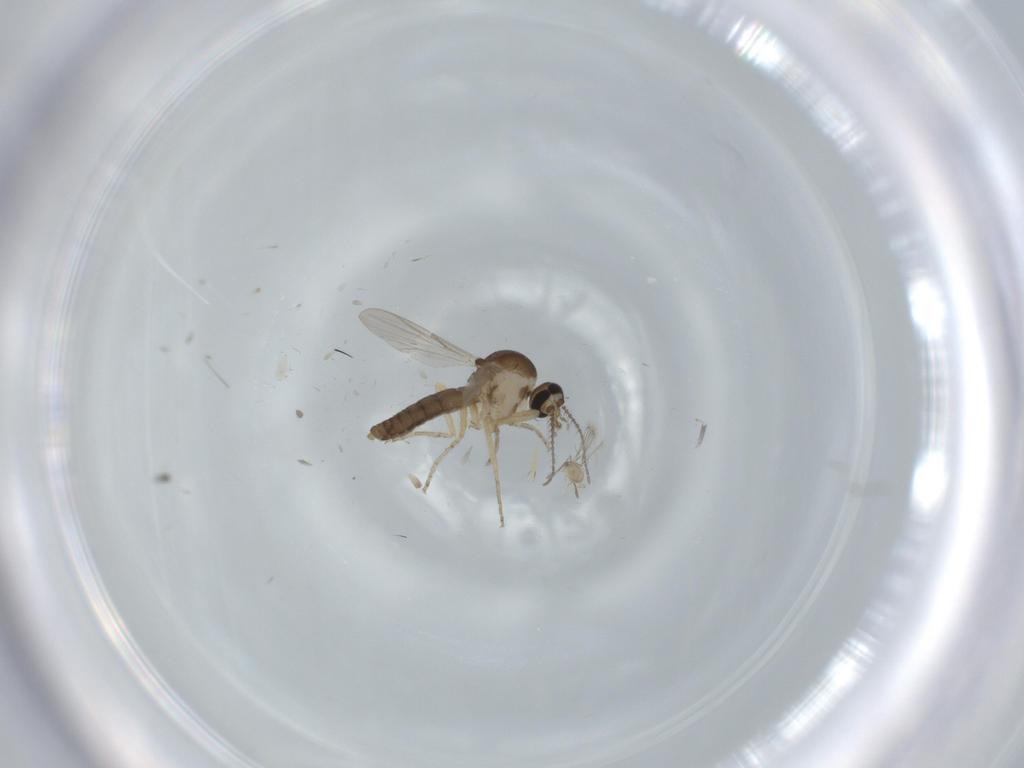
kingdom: Animalia
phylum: Arthropoda
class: Insecta
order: Diptera
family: Ceratopogonidae
